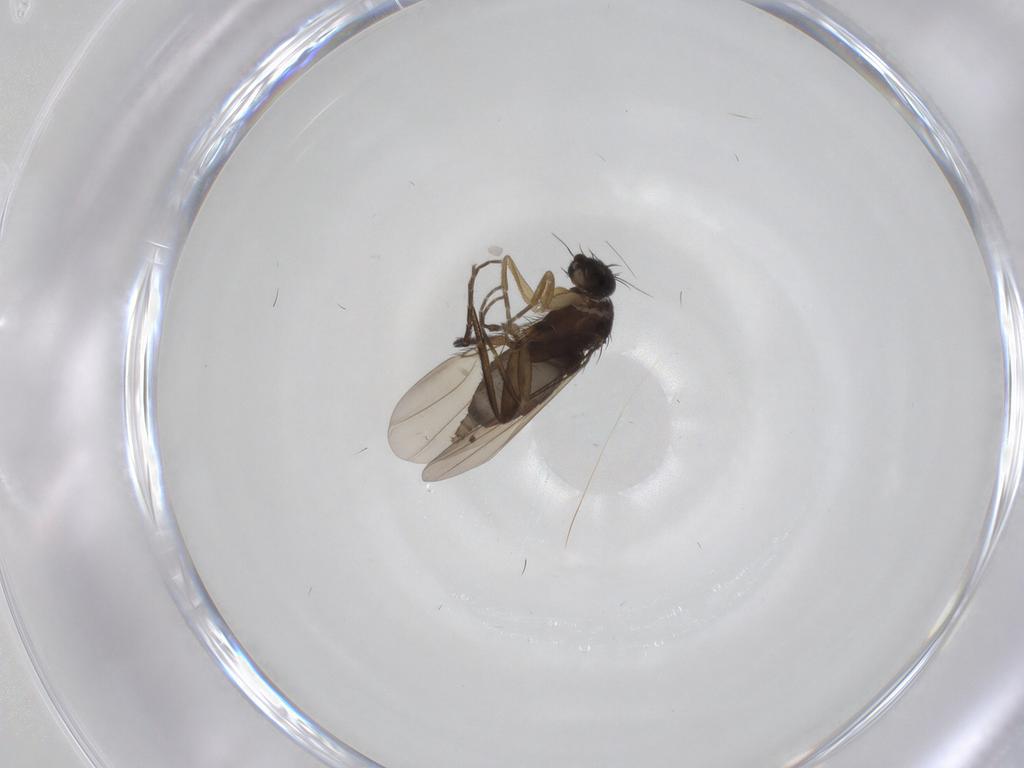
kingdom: Animalia
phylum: Arthropoda
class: Insecta
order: Diptera
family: Phoridae
